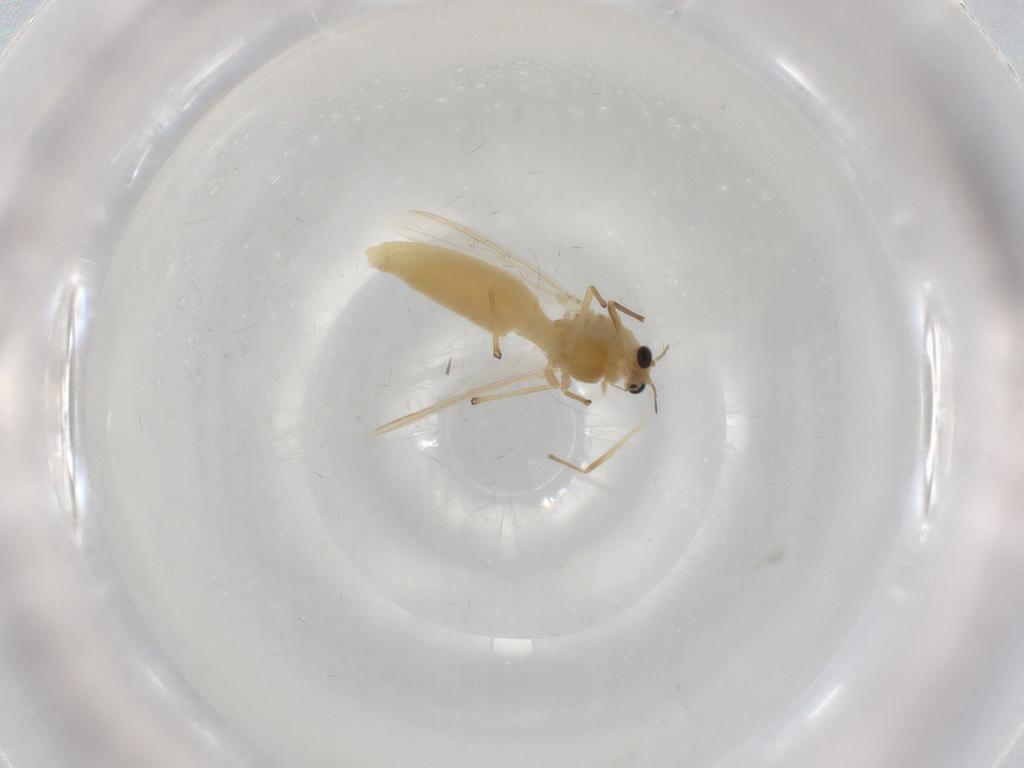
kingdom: Animalia
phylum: Arthropoda
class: Insecta
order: Diptera
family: Chironomidae
